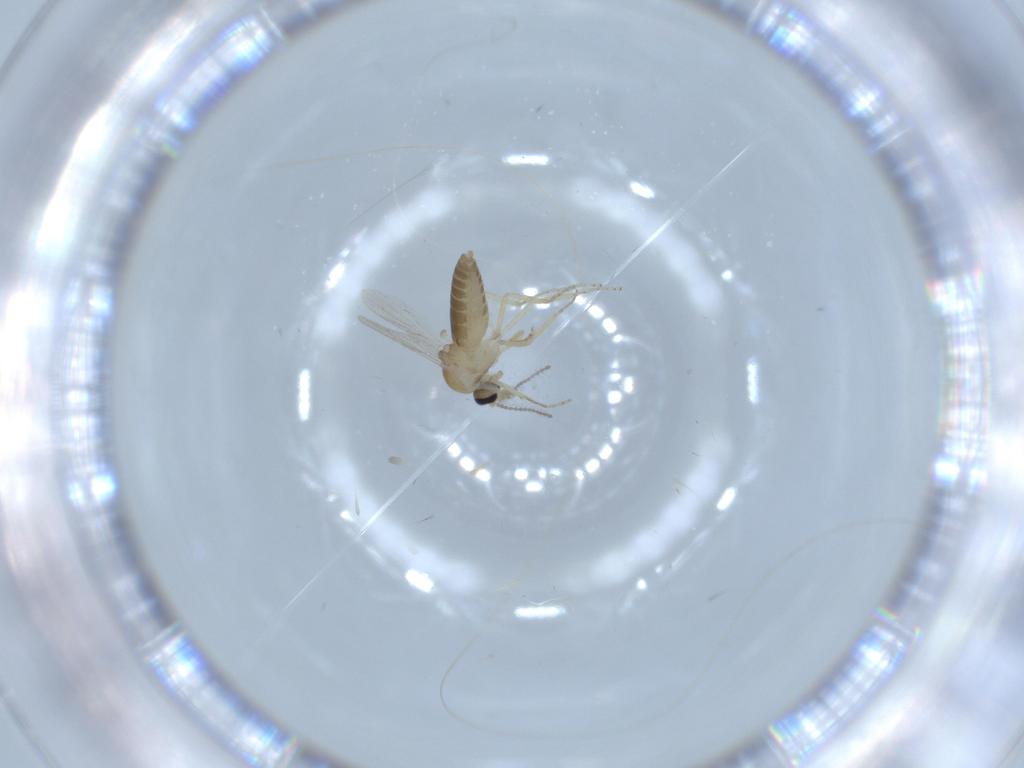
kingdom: Animalia
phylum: Arthropoda
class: Insecta
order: Diptera
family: Ceratopogonidae
